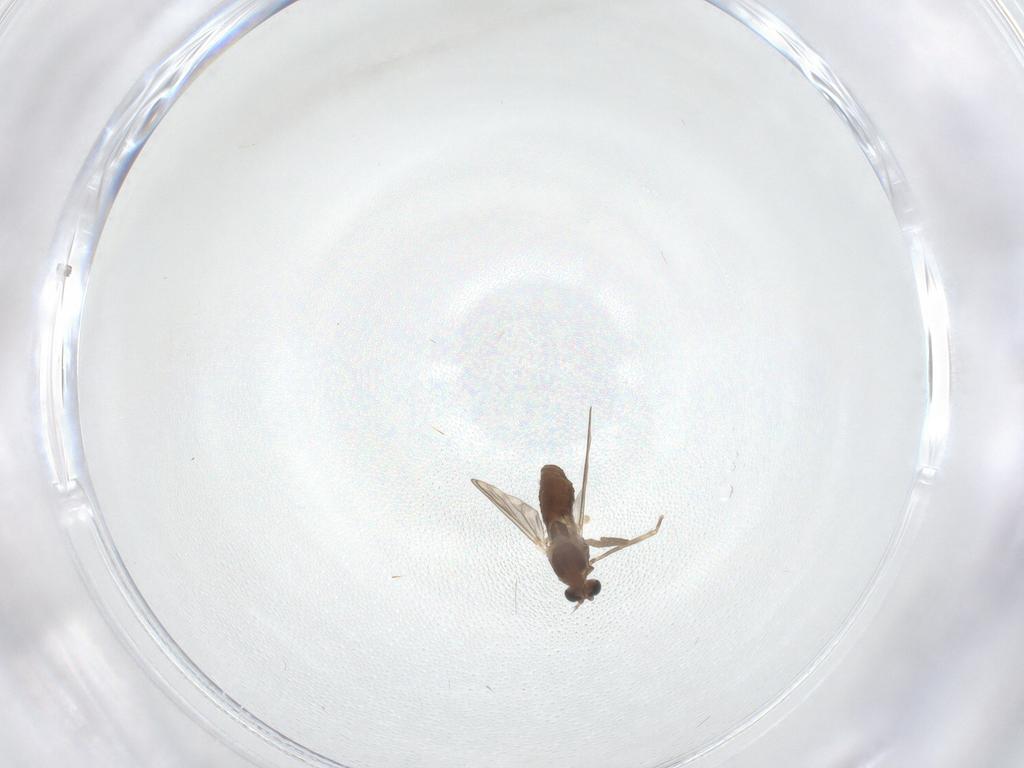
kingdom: Animalia
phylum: Arthropoda
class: Insecta
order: Diptera
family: Chironomidae
